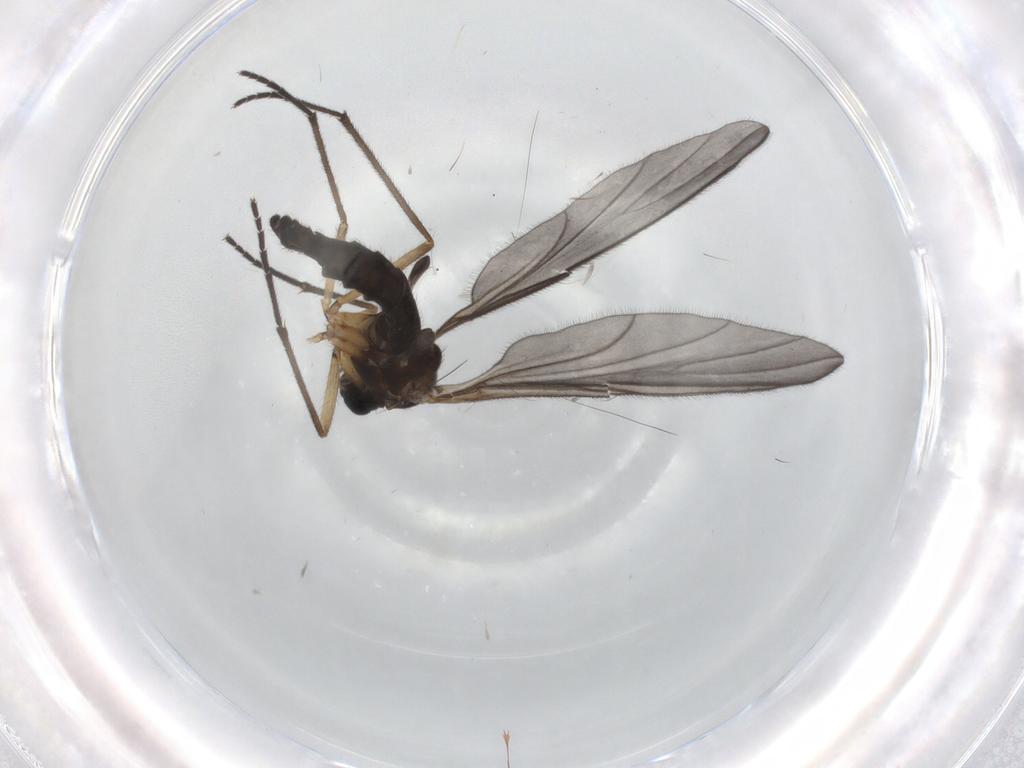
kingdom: Animalia
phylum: Arthropoda
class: Insecta
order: Diptera
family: Sciaridae
